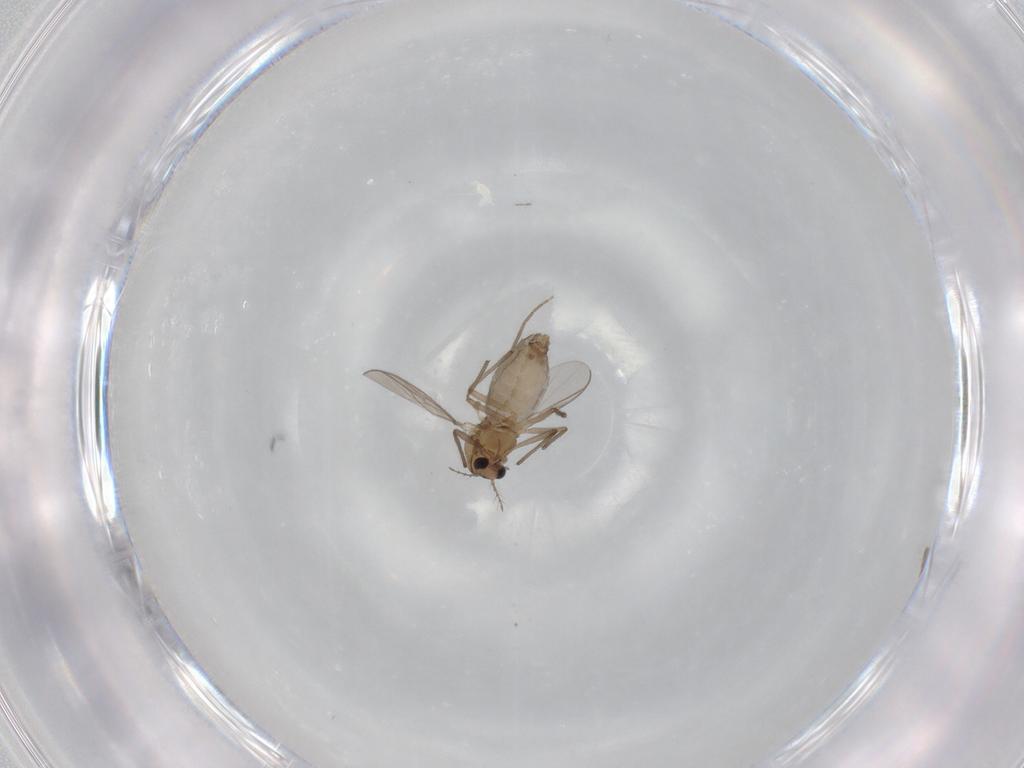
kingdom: Animalia
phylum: Arthropoda
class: Insecta
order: Diptera
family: Chironomidae
